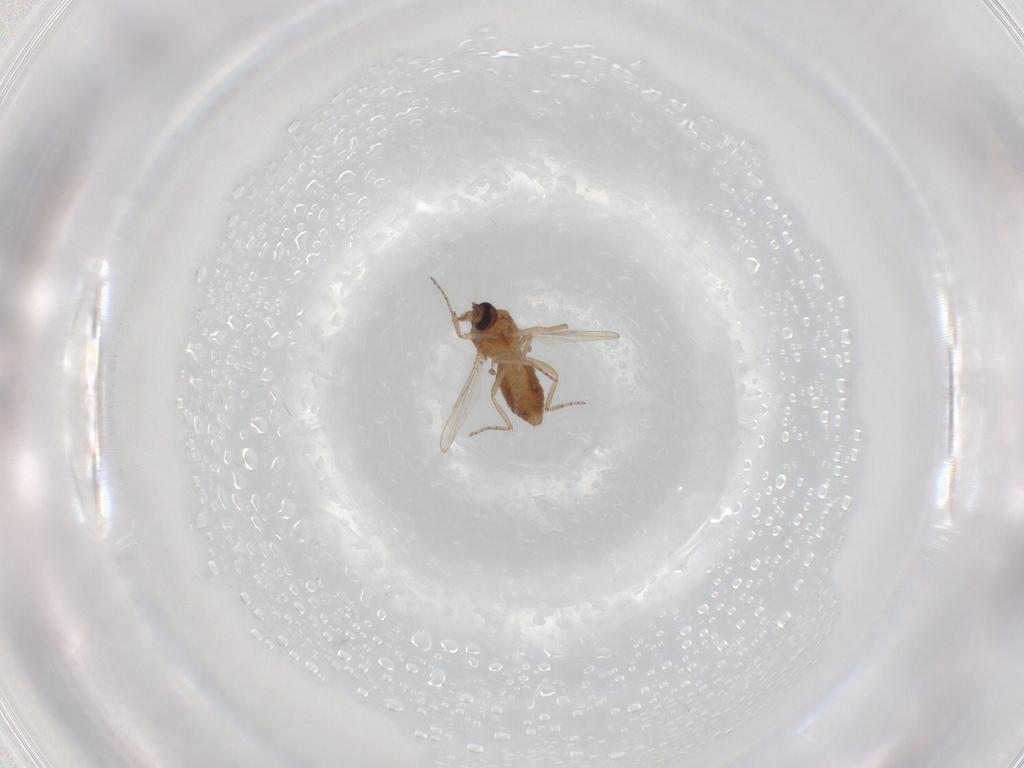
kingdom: Animalia
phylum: Arthropoda
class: Insecta
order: Diptera
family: Ceratopogonidae
